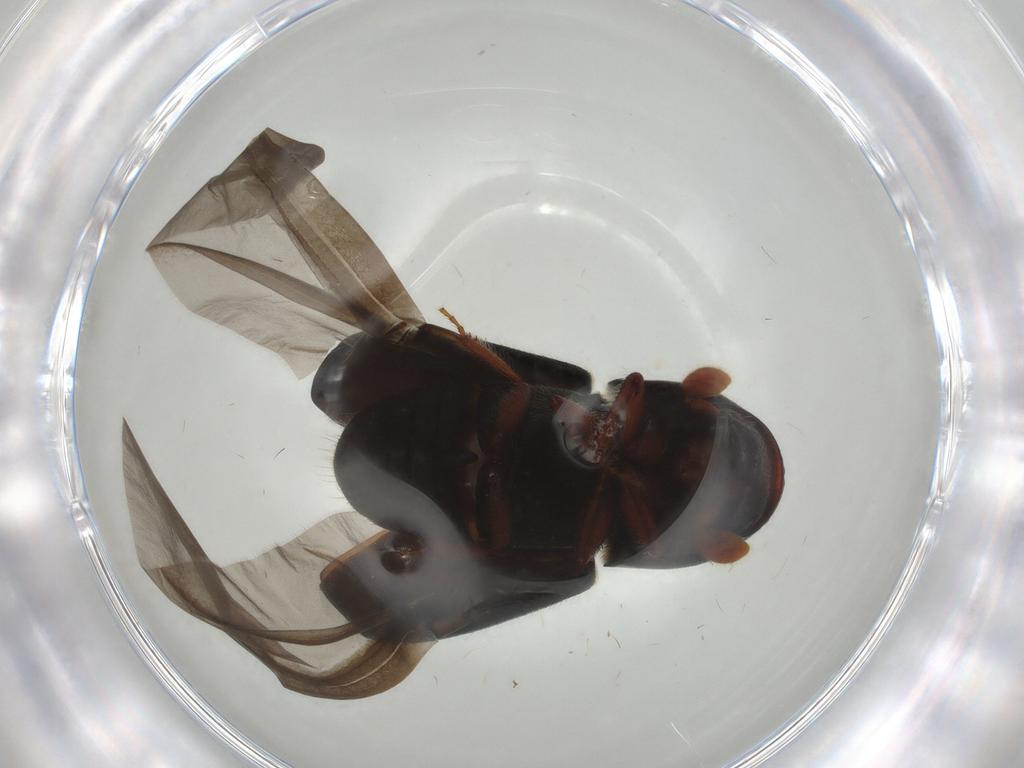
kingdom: Animalia
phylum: Arthropoda
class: Insecta
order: Coleoptera
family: Curculionidae
